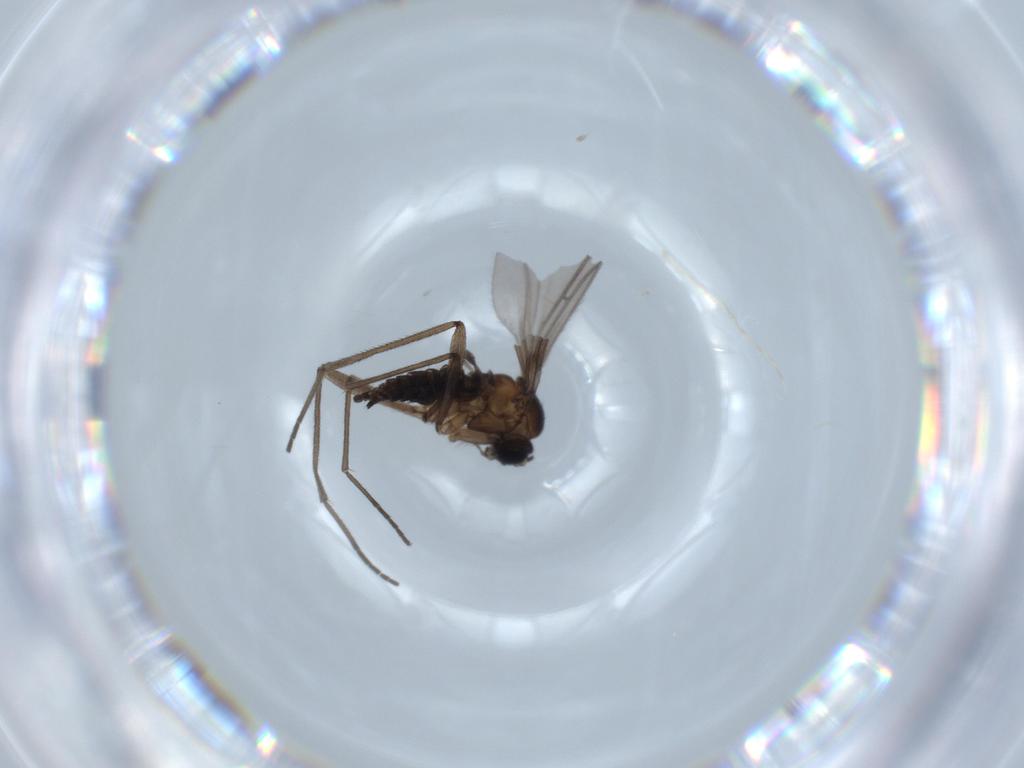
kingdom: Animalia
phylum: Arthropoda
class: Insecta
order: Diptera
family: Sciaridae
